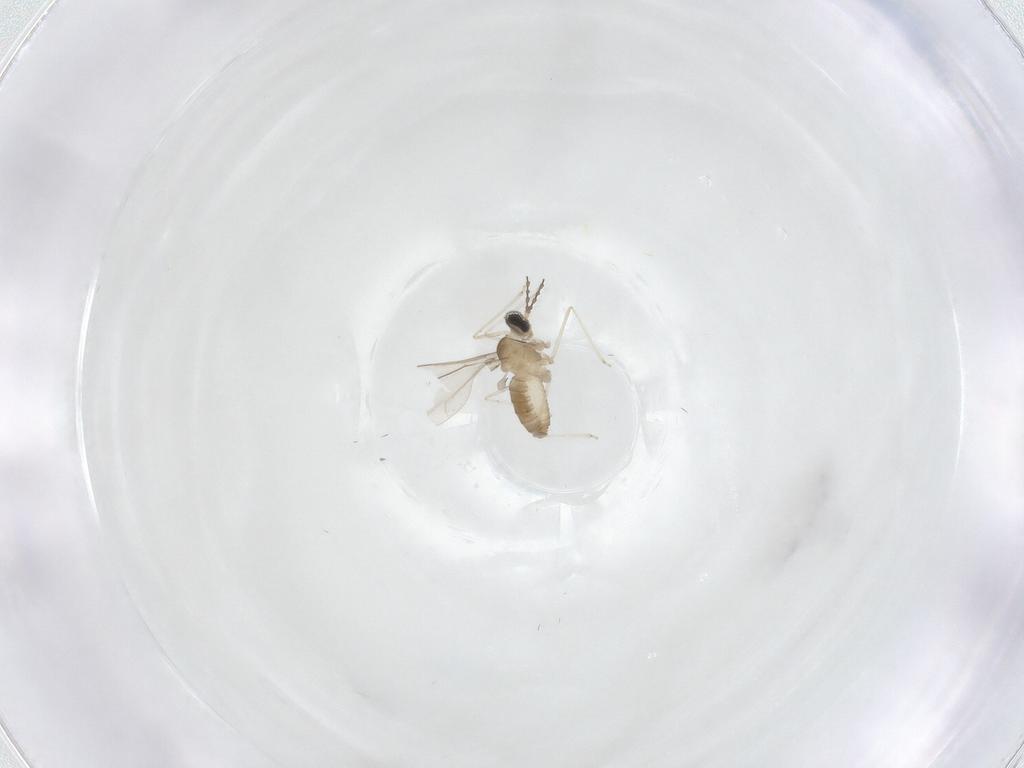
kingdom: Animalia
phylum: Arthropoda
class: Insecta
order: Diptera
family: Cecidomyiidae
